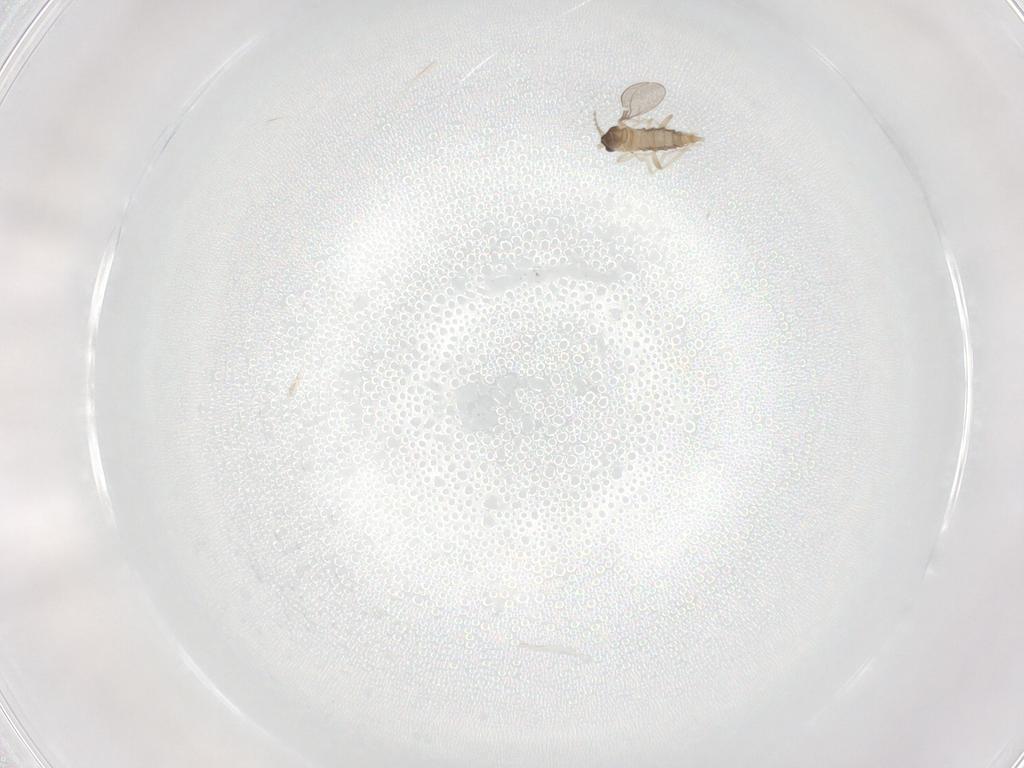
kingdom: Animalia
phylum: Arthropoda
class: Insecta
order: Diptera
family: Cecidomyiidae
